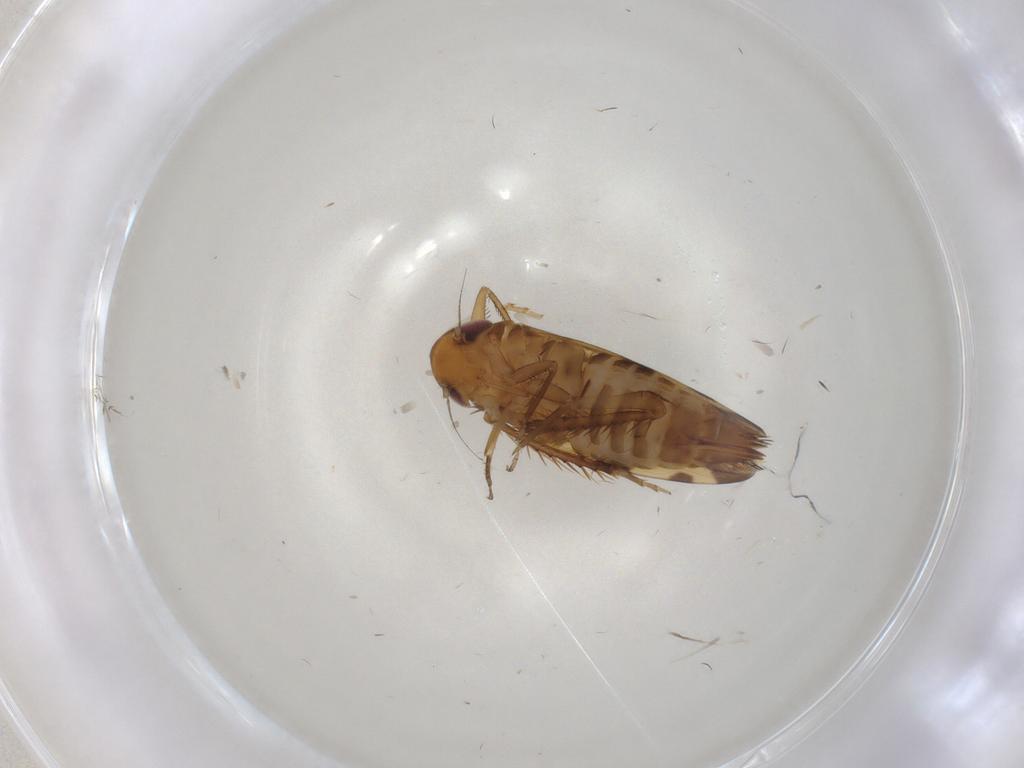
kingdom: Animalia
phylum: Arthropoda
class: Insecta
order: Hemiptera
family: Cicadellidae
